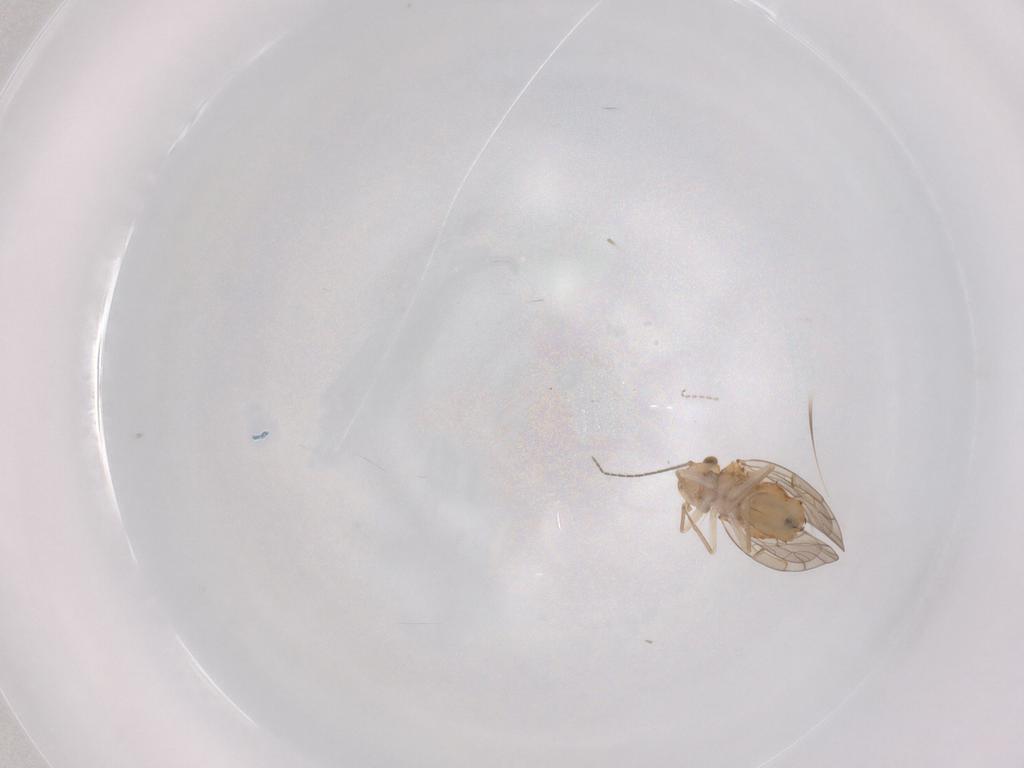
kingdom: Animalia
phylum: Arthropoda
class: Insecta
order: Psocodea
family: Ectopsocidae
